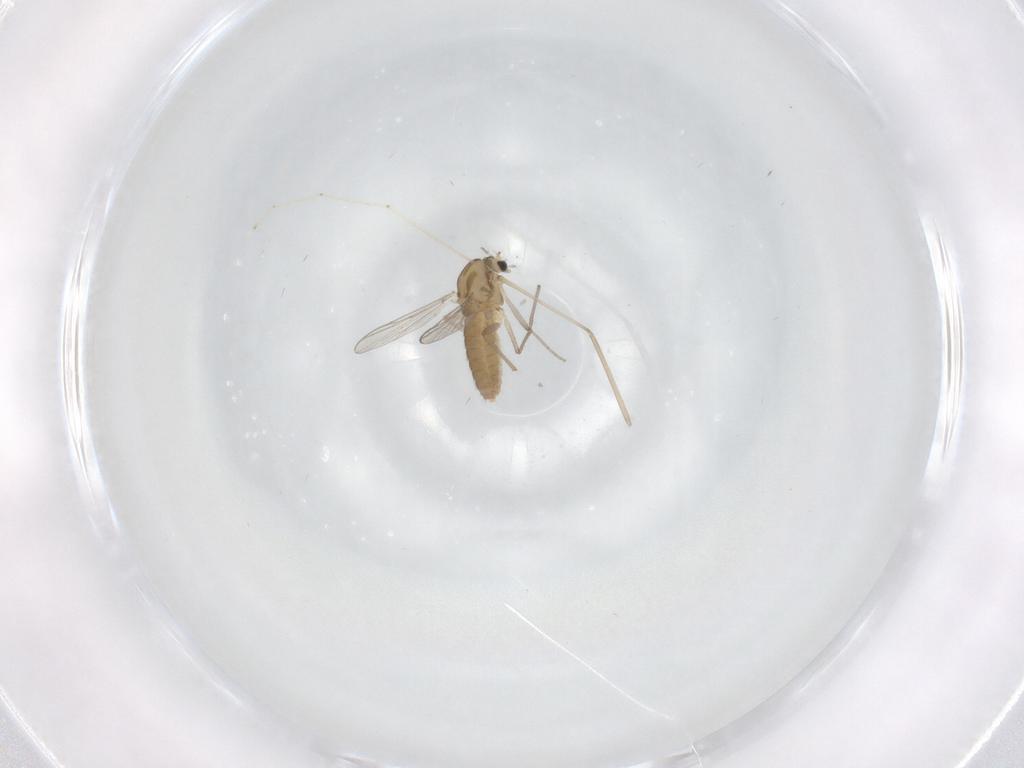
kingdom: Animalia
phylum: Arthropoda
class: Insecta
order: Diptera
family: Chironomidae
